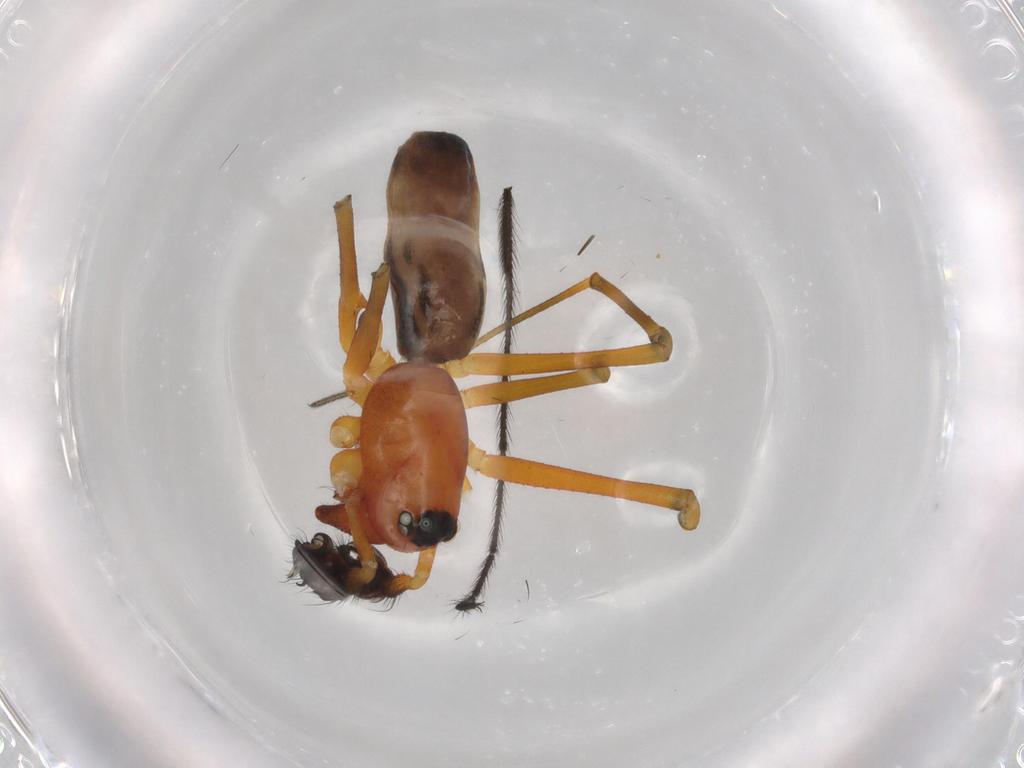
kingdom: Animalia
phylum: Arthropoda
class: Arachnida
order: Araneae
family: Linyphiidae
